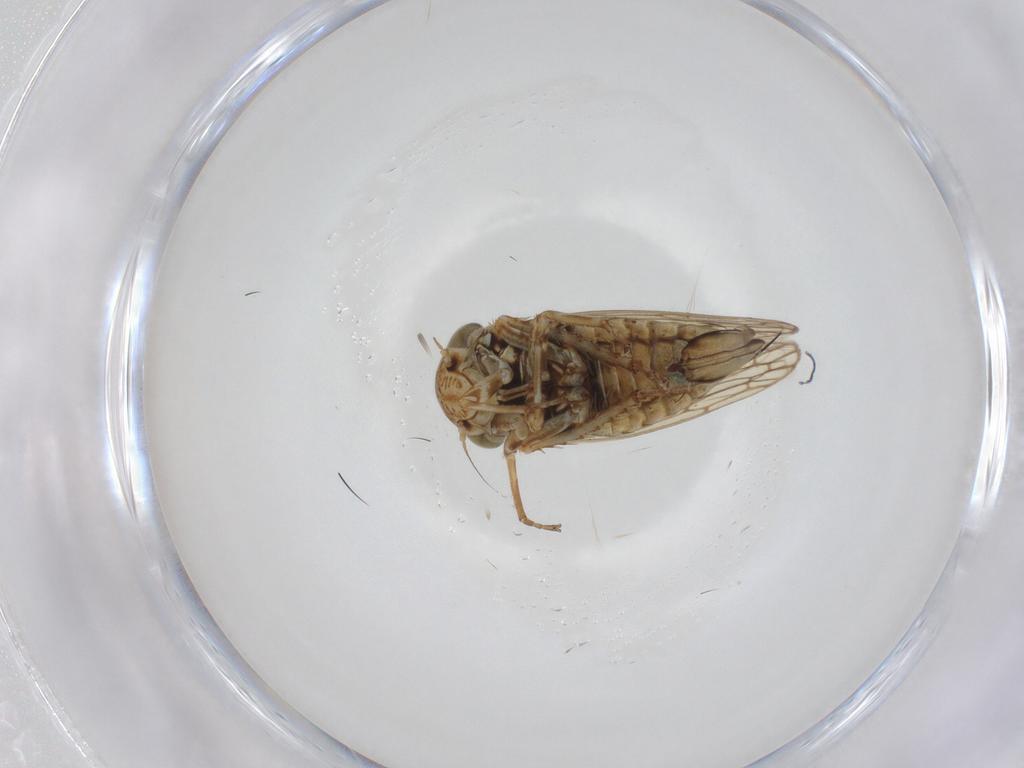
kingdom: Animalia
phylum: Arthropoda
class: Insecta
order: Hemiptera
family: Cicadellidae
